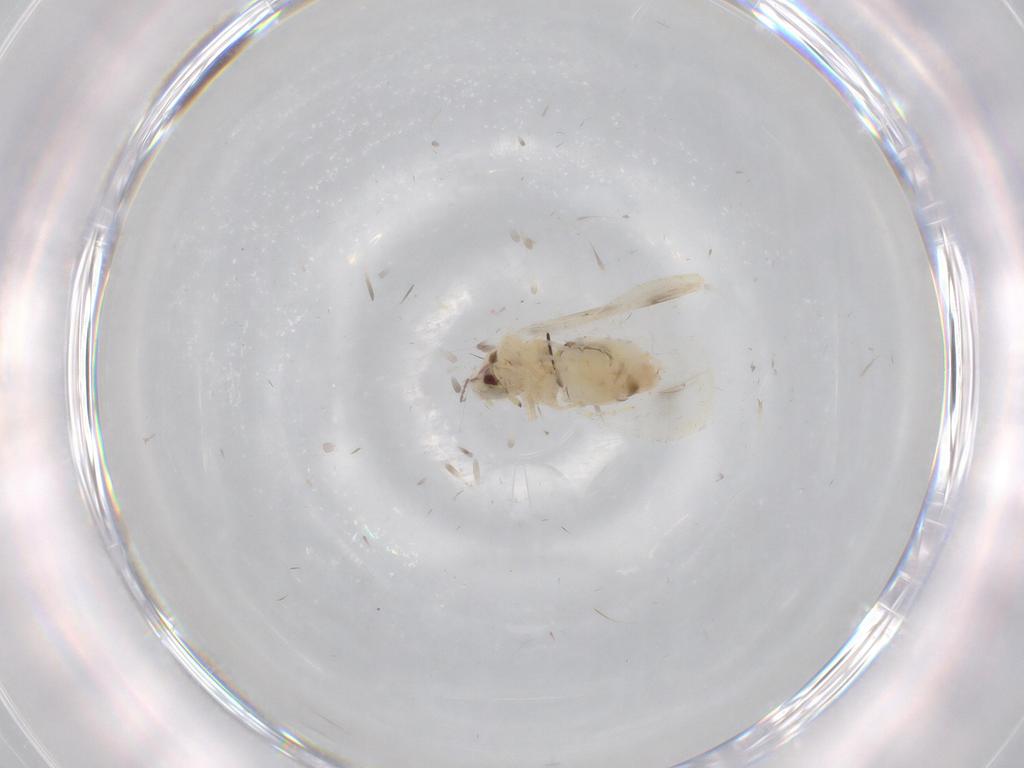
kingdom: Animalia
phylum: Arthropoda
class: Insecta
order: Hemiptera
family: Aleyrodidae
